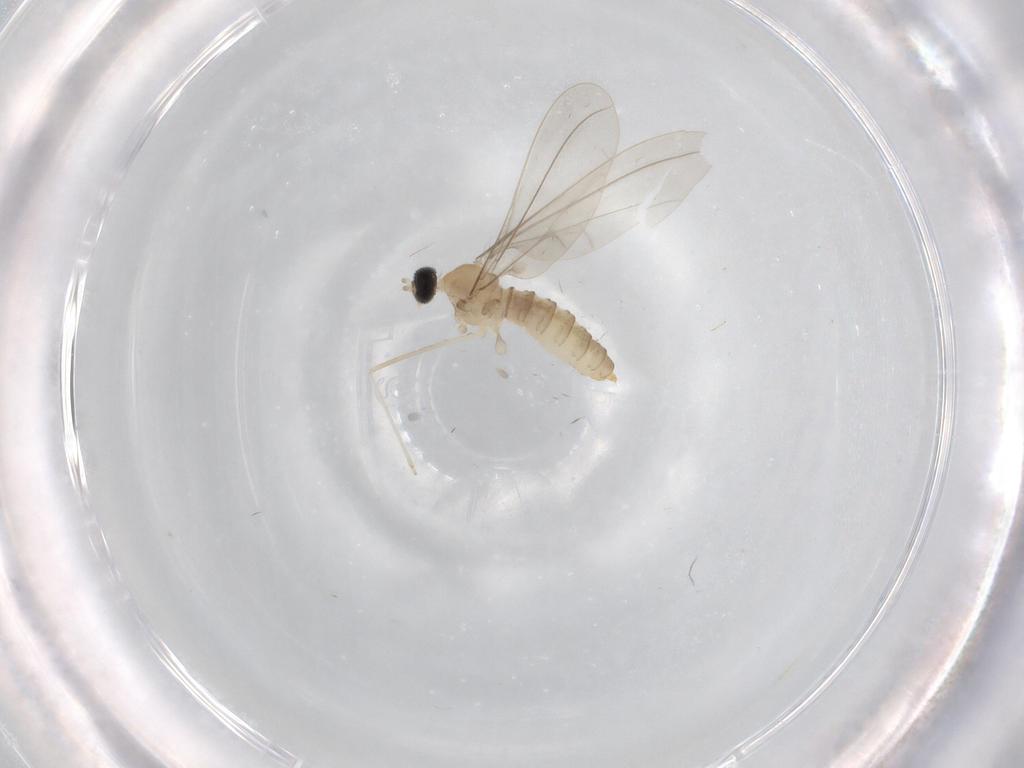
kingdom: Animalia
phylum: Arthropoda
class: Insecta
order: Diptera
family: Cecidomyiidae
